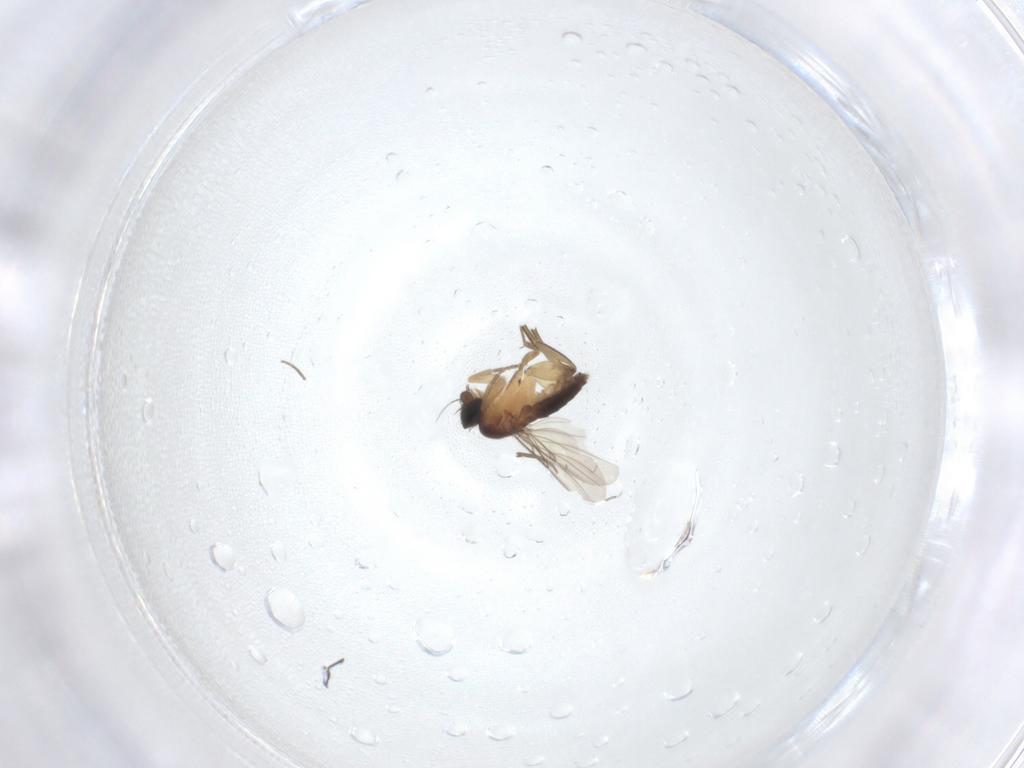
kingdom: Animalia
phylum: Arthropoda
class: Insecta
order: Diptera
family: Phoridae
